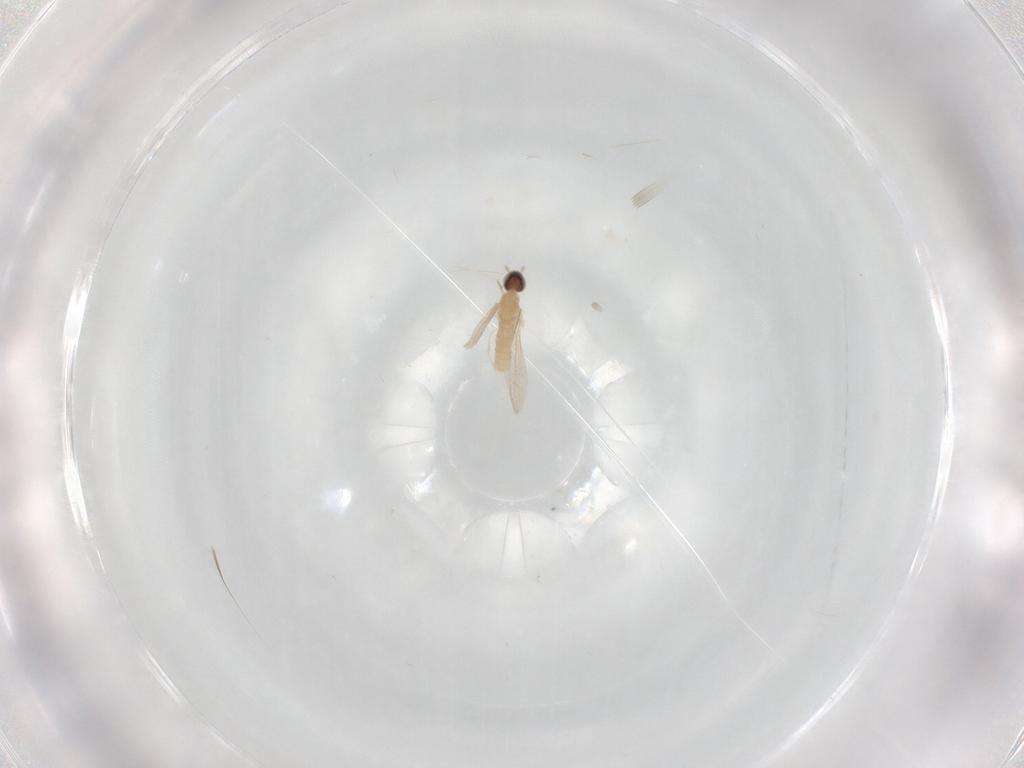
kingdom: Animalia
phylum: Arthropoda
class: Insecta
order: Diptera
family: Cecidomyiidae
